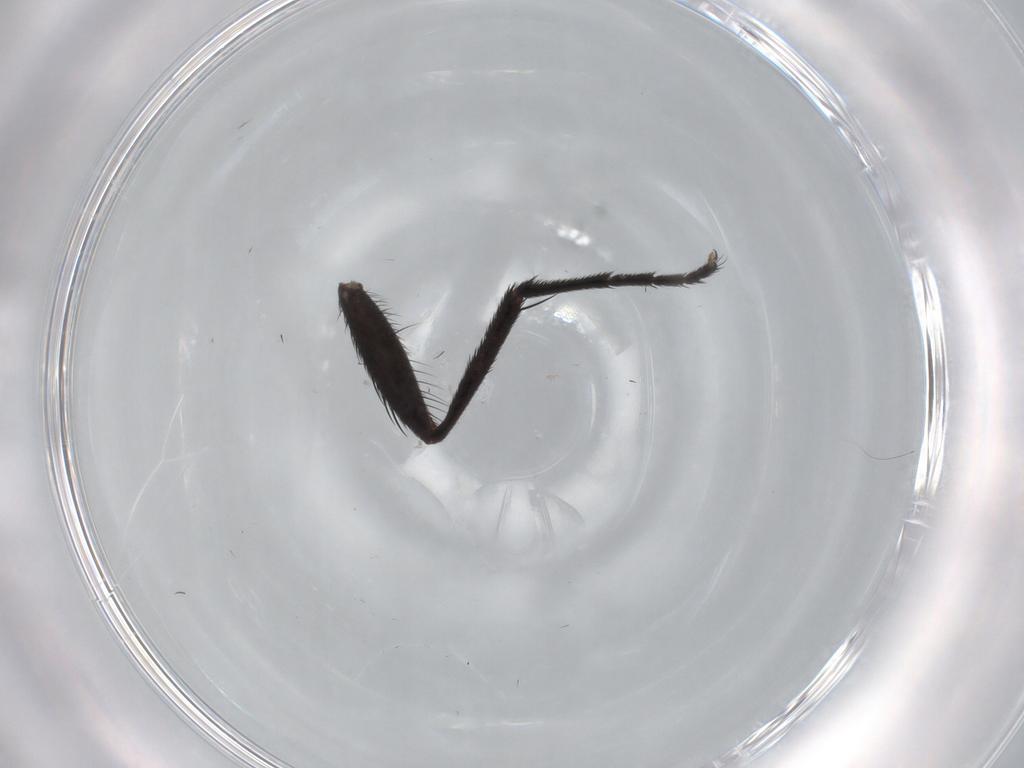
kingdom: Animalia
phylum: Arthropoda
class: Insecta
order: Diptera
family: Tachinidae
